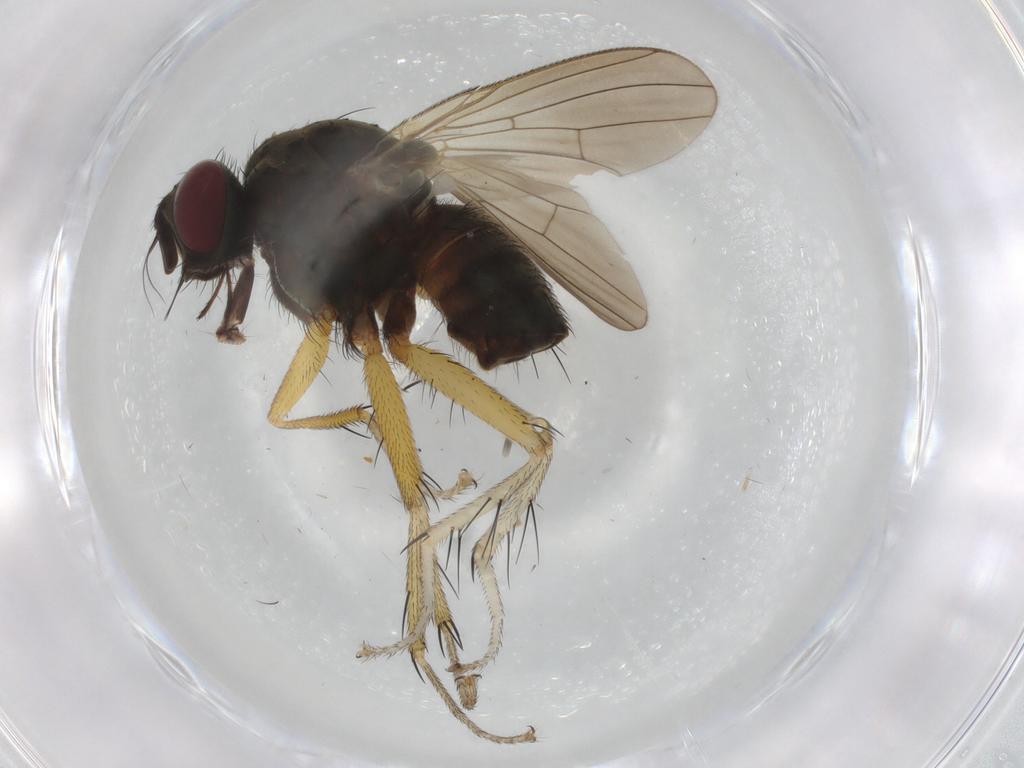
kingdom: Animalia
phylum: Arthropoda
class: Insecta
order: Diptera
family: Muscidae
